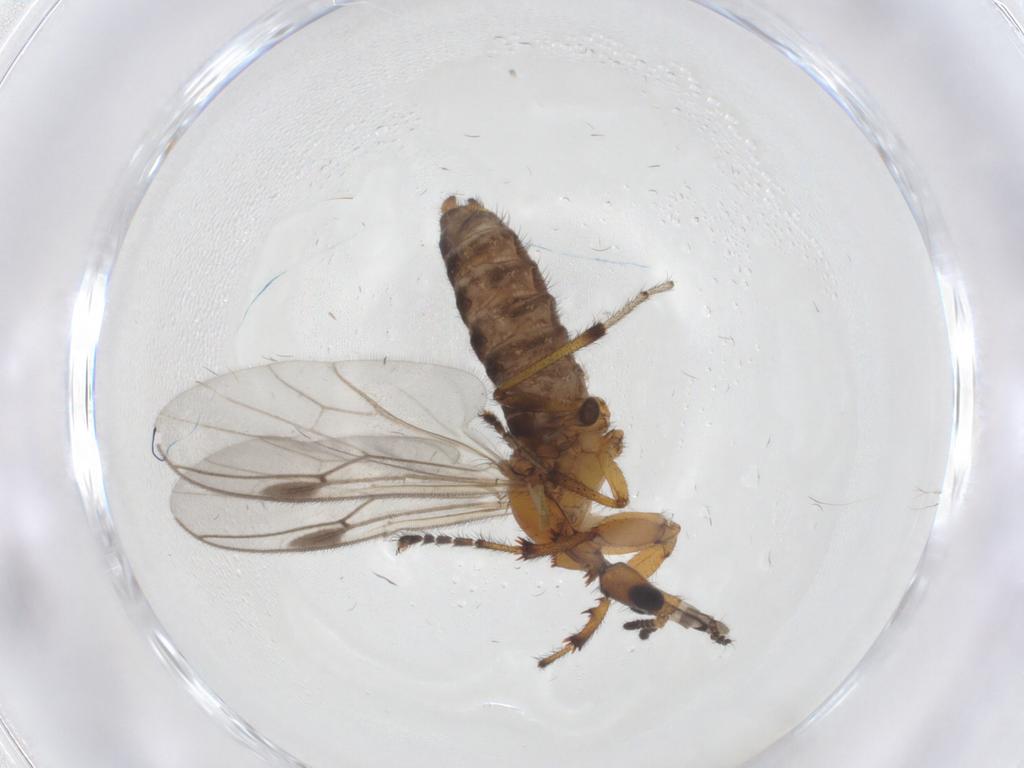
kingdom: Animalia
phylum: Arthropoda
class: Insecta
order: Diptera
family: Bibionidae
